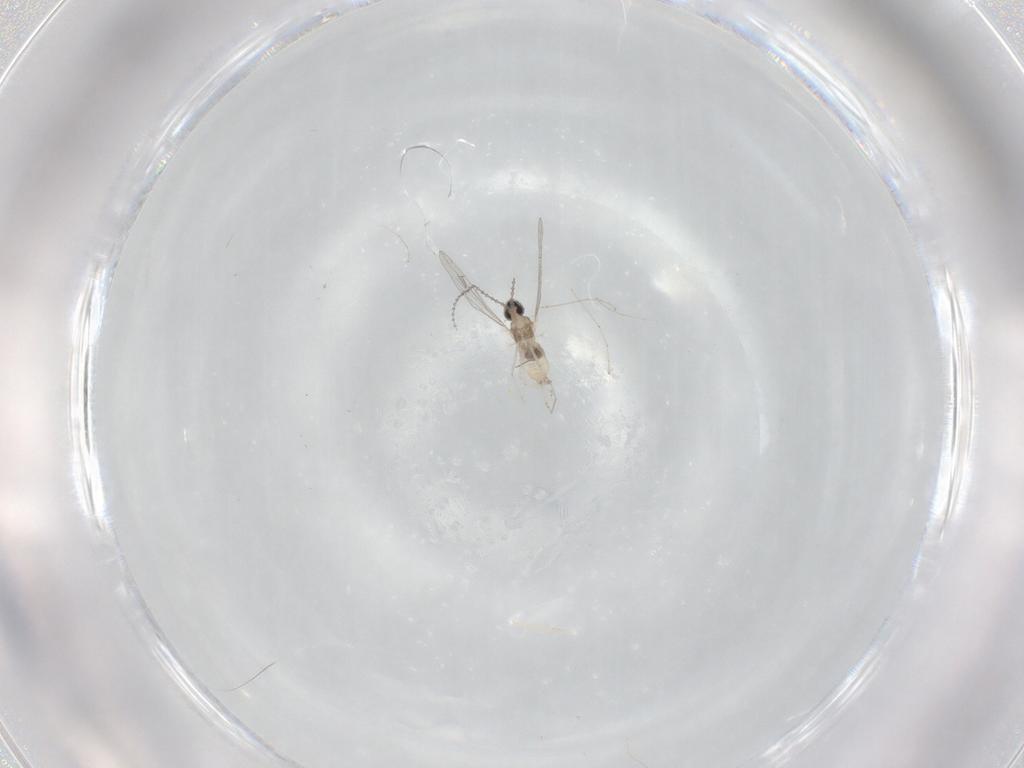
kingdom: Animalia
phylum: Arthropoda
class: Insecta
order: Diptera
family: Cecidomyiidae
